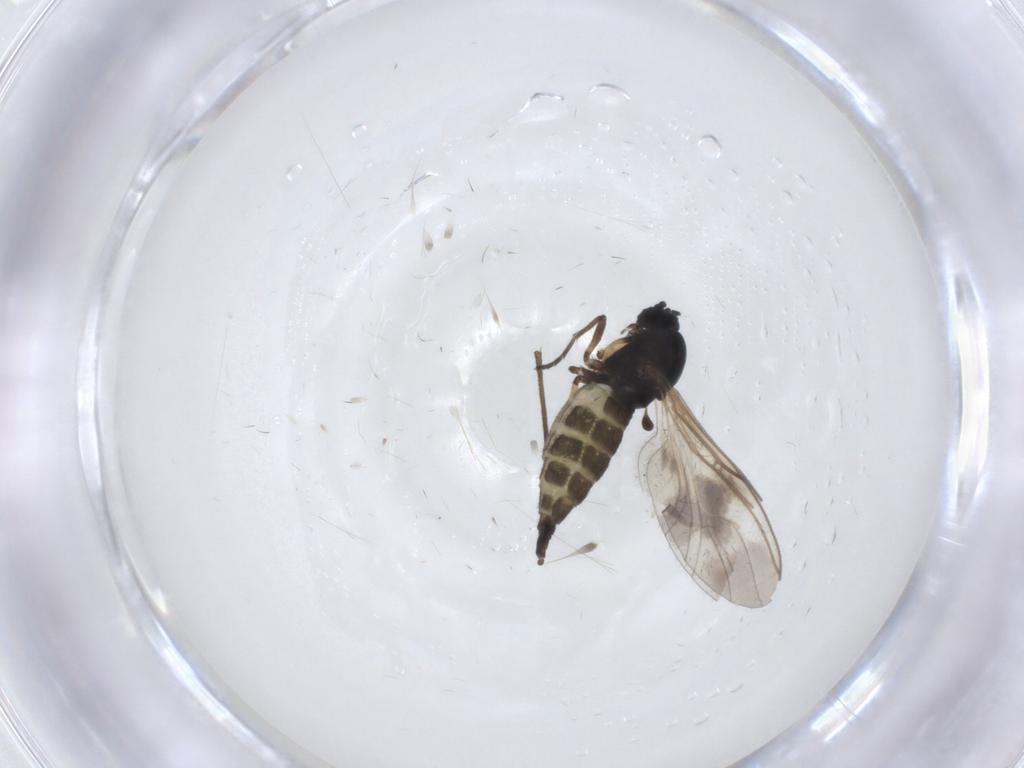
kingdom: Animalia
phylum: Arthropoda
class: Insecta
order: Diptera
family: Sciaridae
